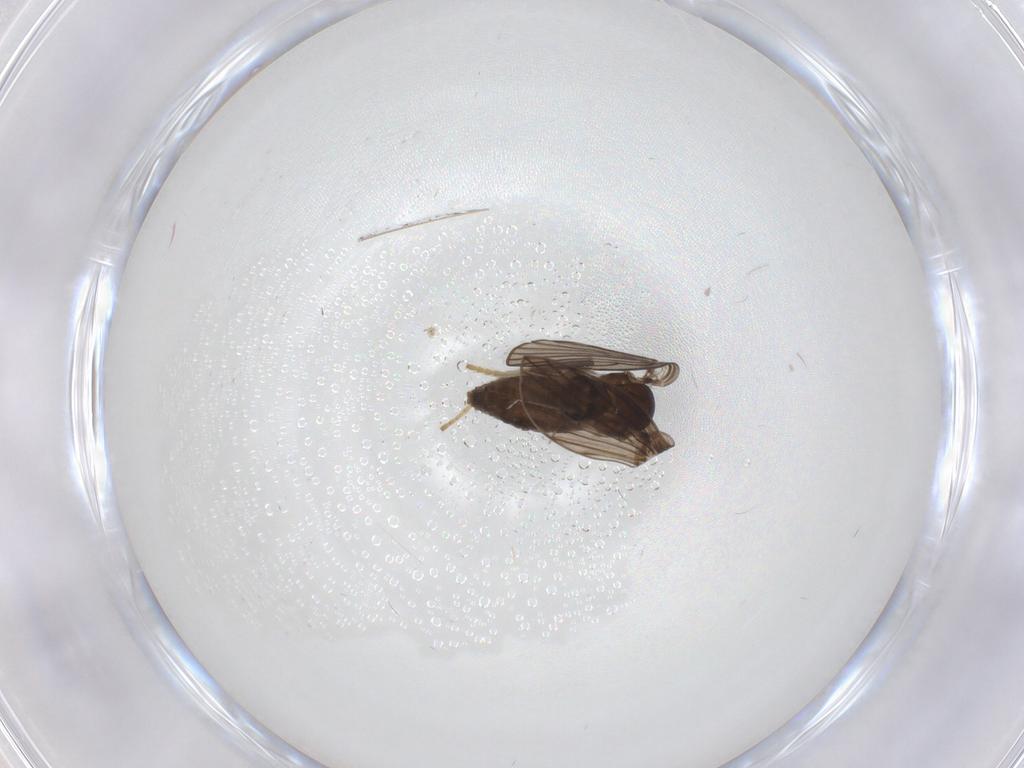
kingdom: Animalia
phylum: Arthropoda
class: Insecta
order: Diptera
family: Psychodidae
